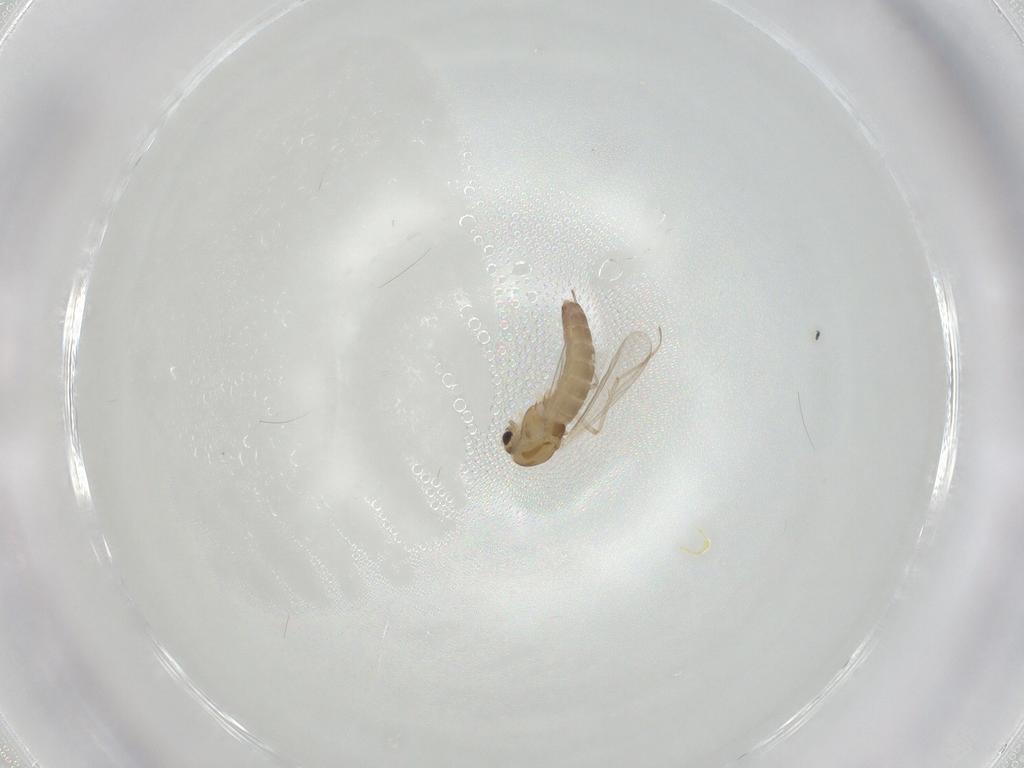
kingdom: Animalia
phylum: Arthropoda
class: Insecta
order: Diptera
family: Chironomidae
